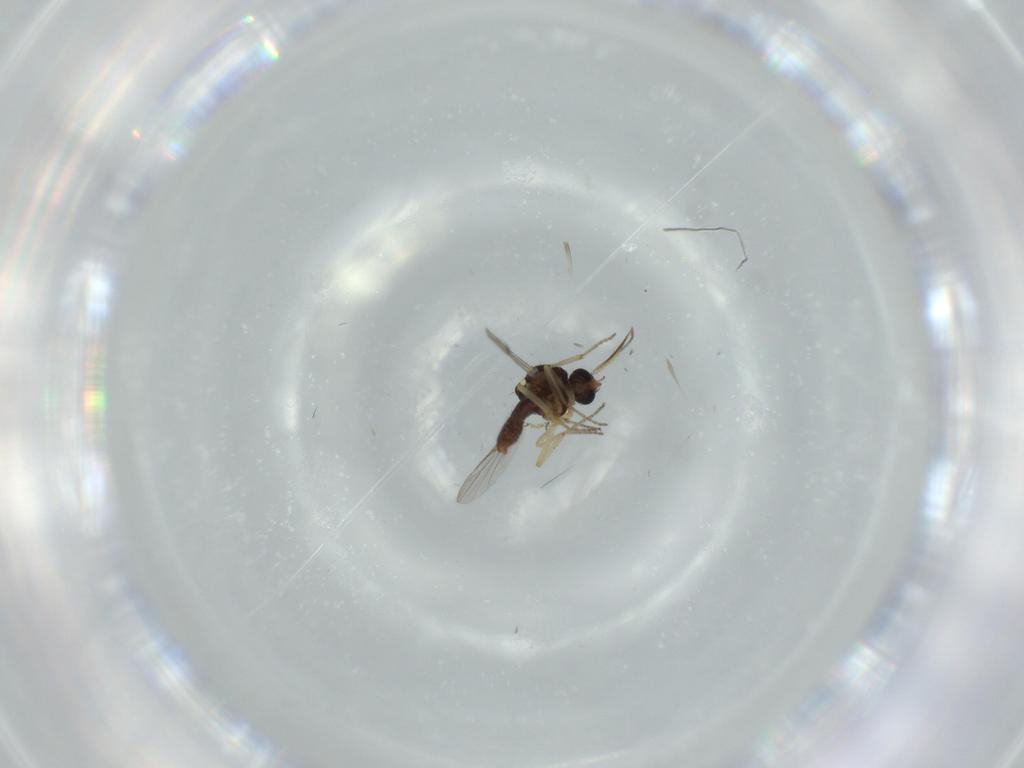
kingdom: Animalia
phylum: Arthropoda
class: Insecta
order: Diptera
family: Ceratopogonidae
